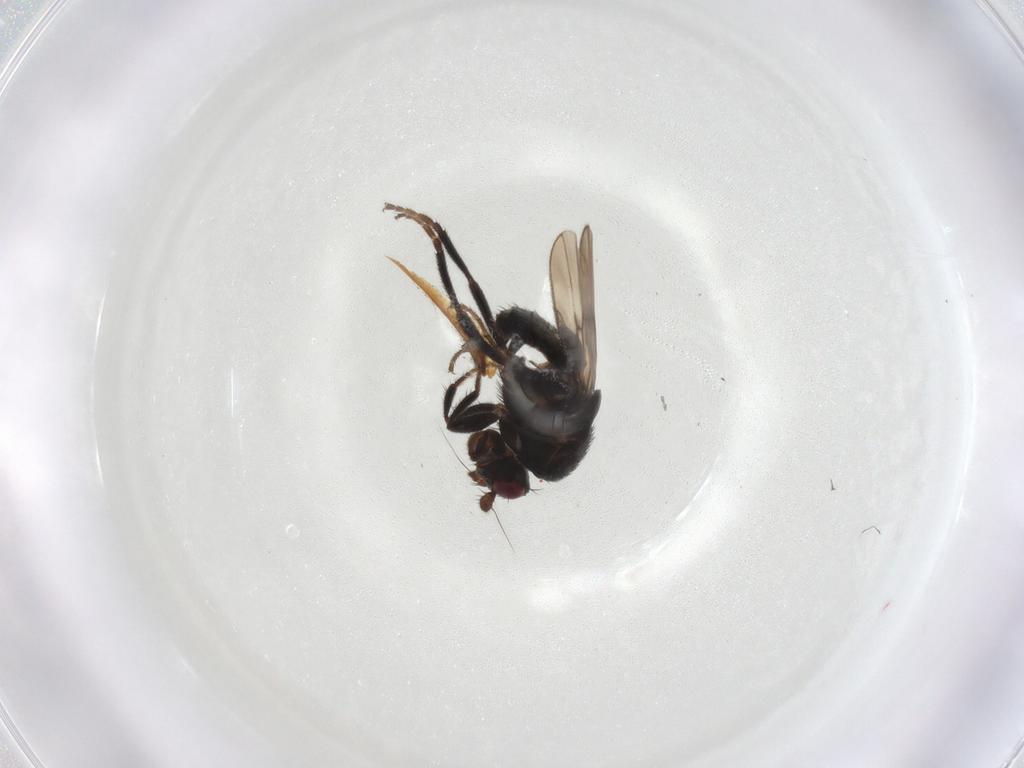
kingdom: Animalia
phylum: Arthropoda
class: Insecta
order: Diptera
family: Sphaeroceridae
